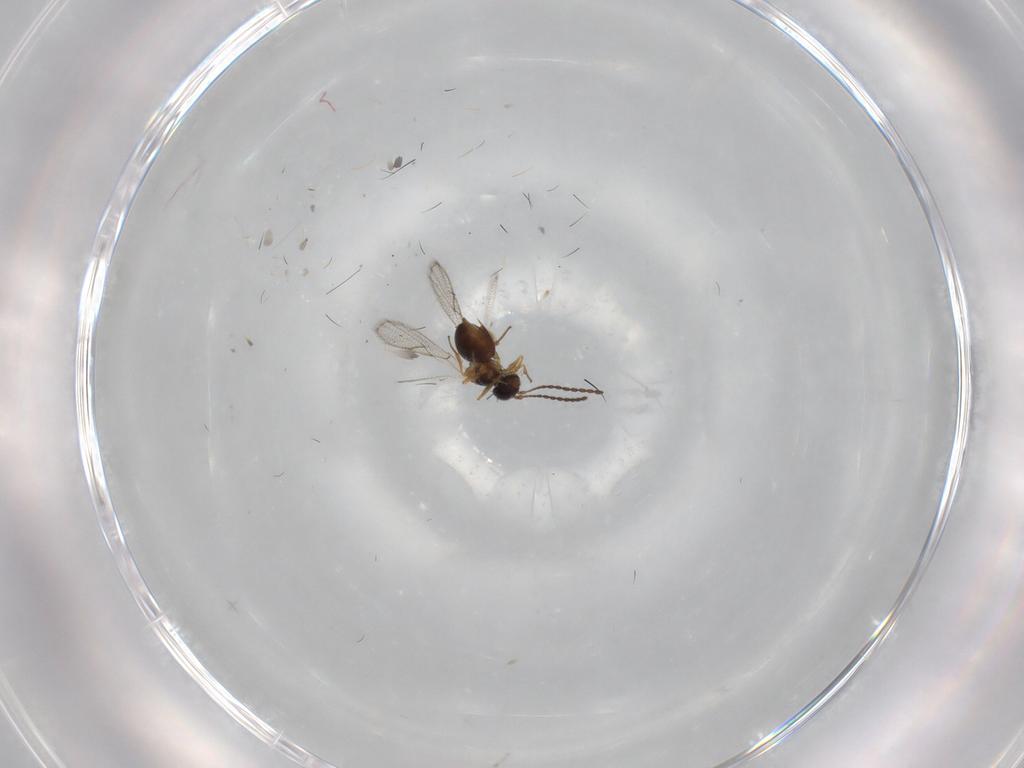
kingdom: Animalia
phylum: Arthropoda
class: Insecta
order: Hymenoptera
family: Figitidae
